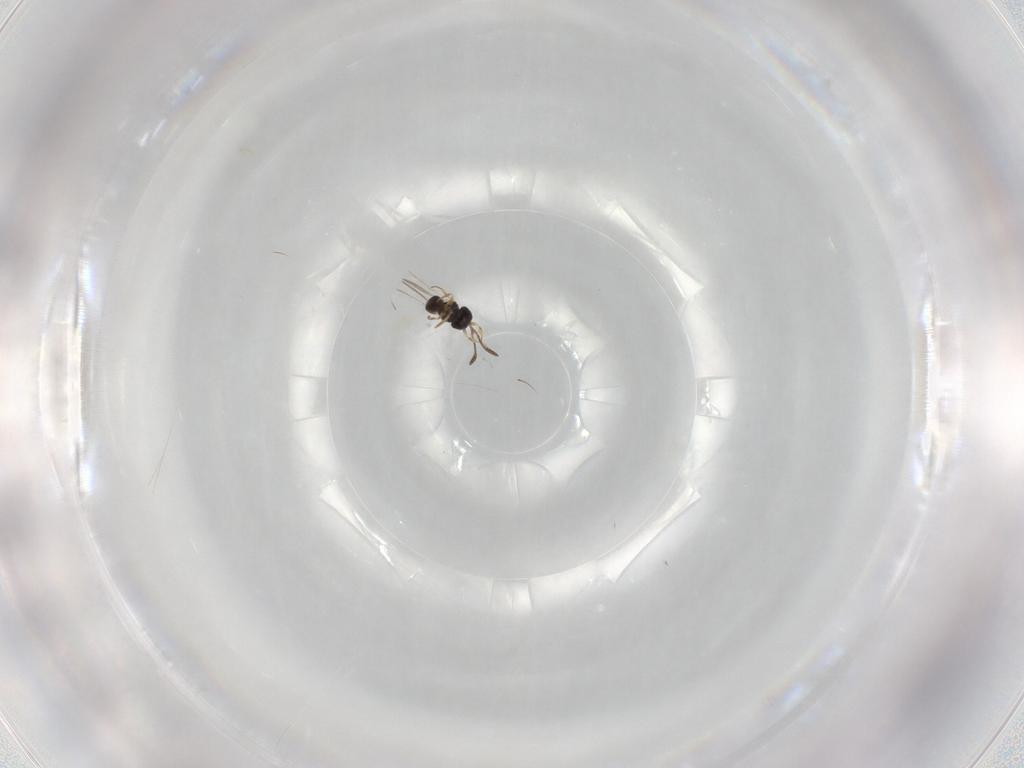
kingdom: Animalia
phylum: Arthropoda
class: Insecta
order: Hymenoptera
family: Scelionidae
